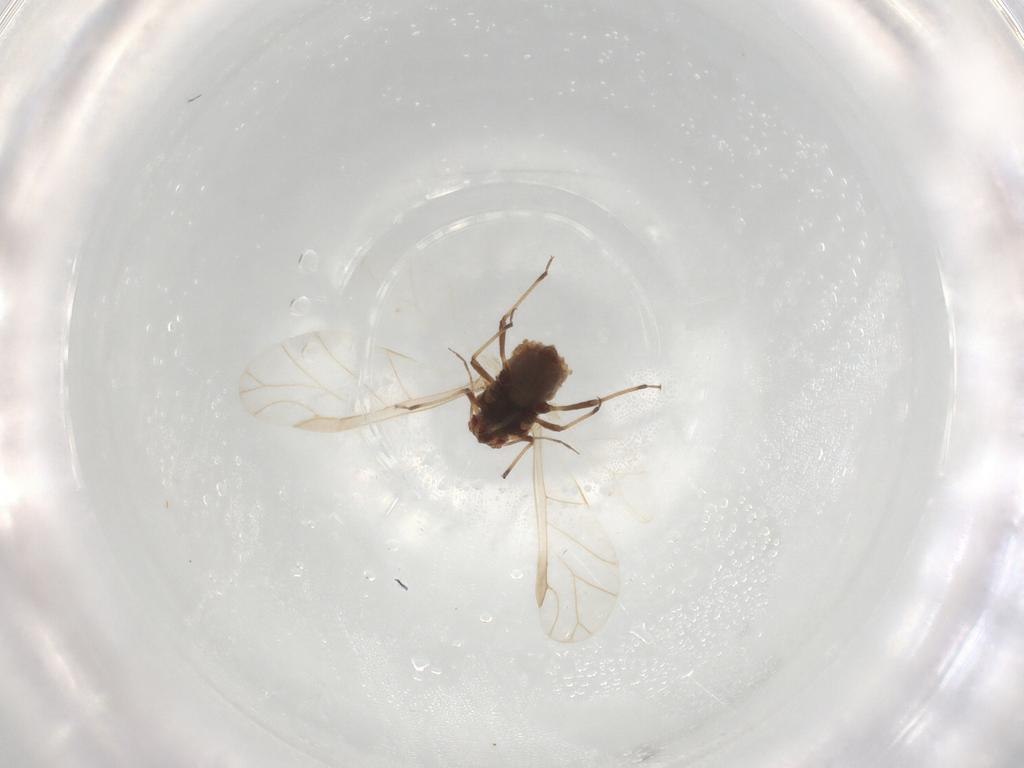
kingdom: Animalia
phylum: Arthropoda
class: Insecta
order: Hemiptera
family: Aphididae
